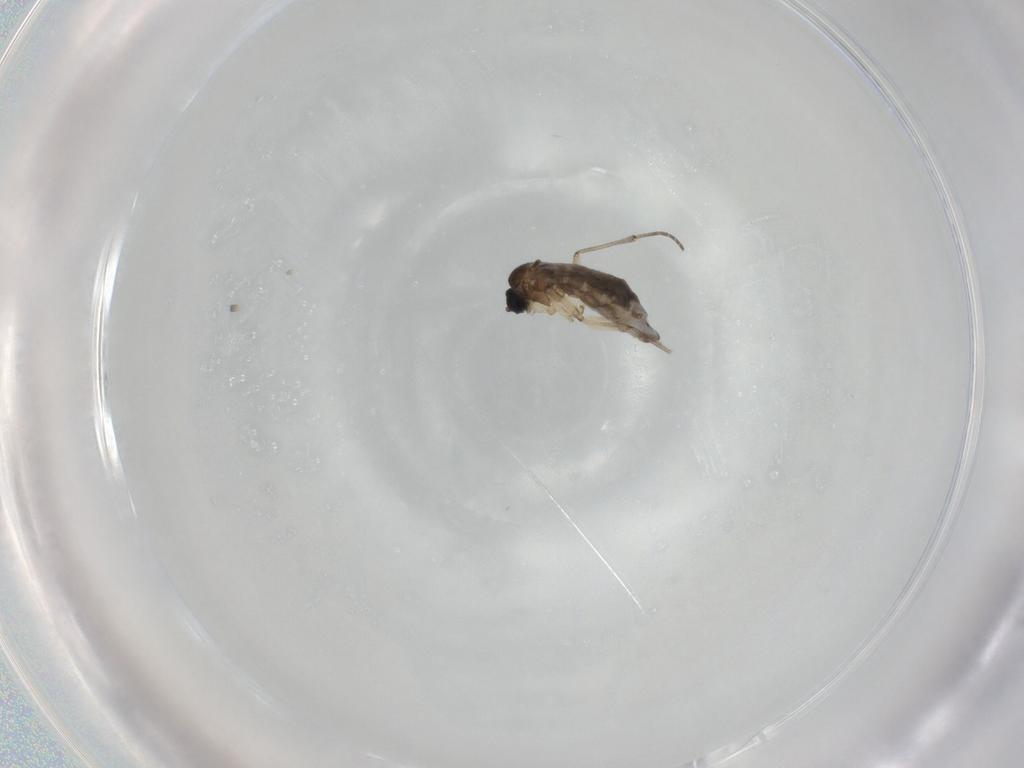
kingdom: Animalia
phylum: Arthropoda
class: Insecta
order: Diptera
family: Sciaridae
